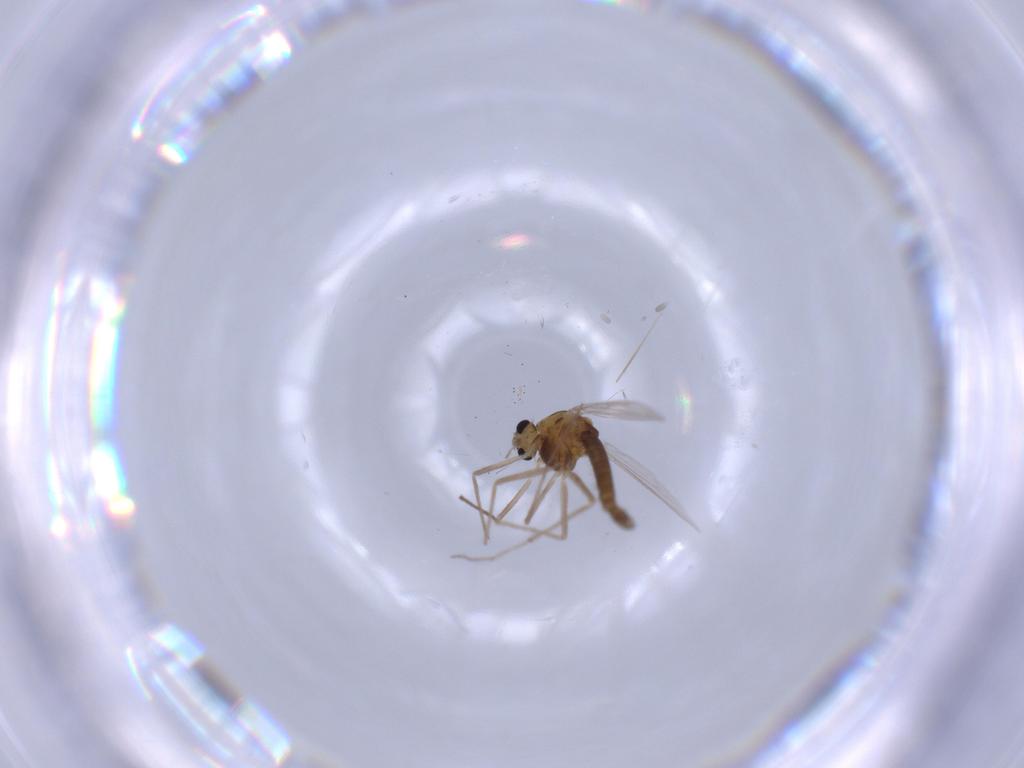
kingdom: Animalia
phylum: Arthropoda
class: Insecta
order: Diptera
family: Chironomidae
